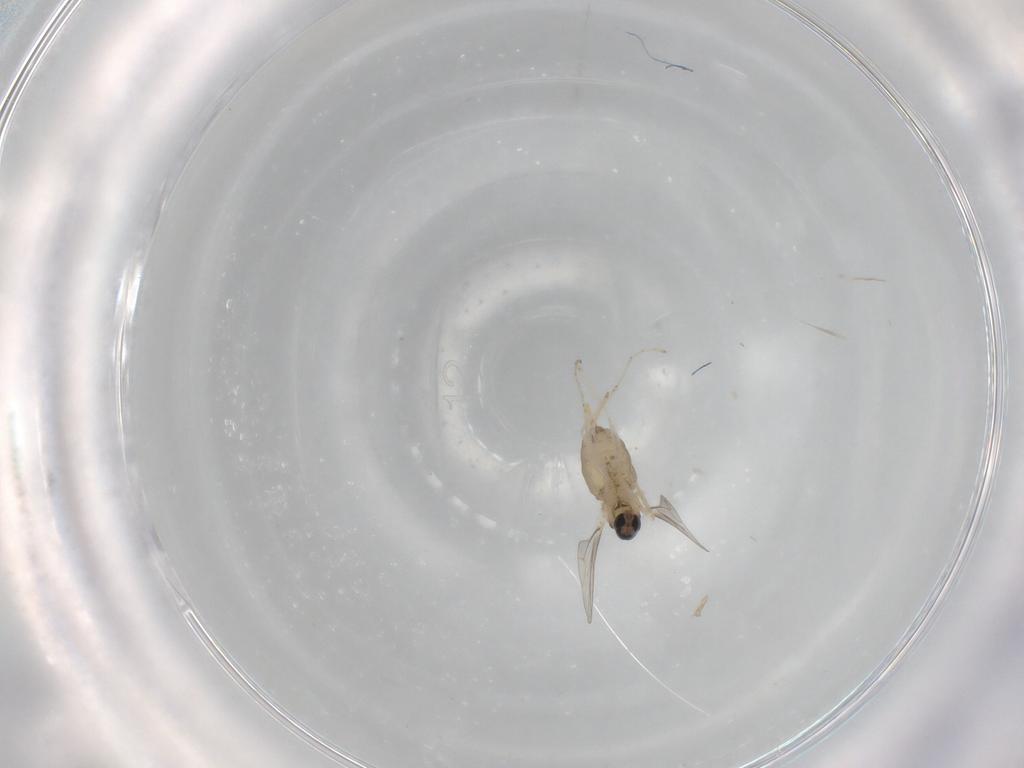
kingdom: Animalia
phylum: Arthropoda
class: Insecta
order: Diptera
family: Cecidomyiidae
